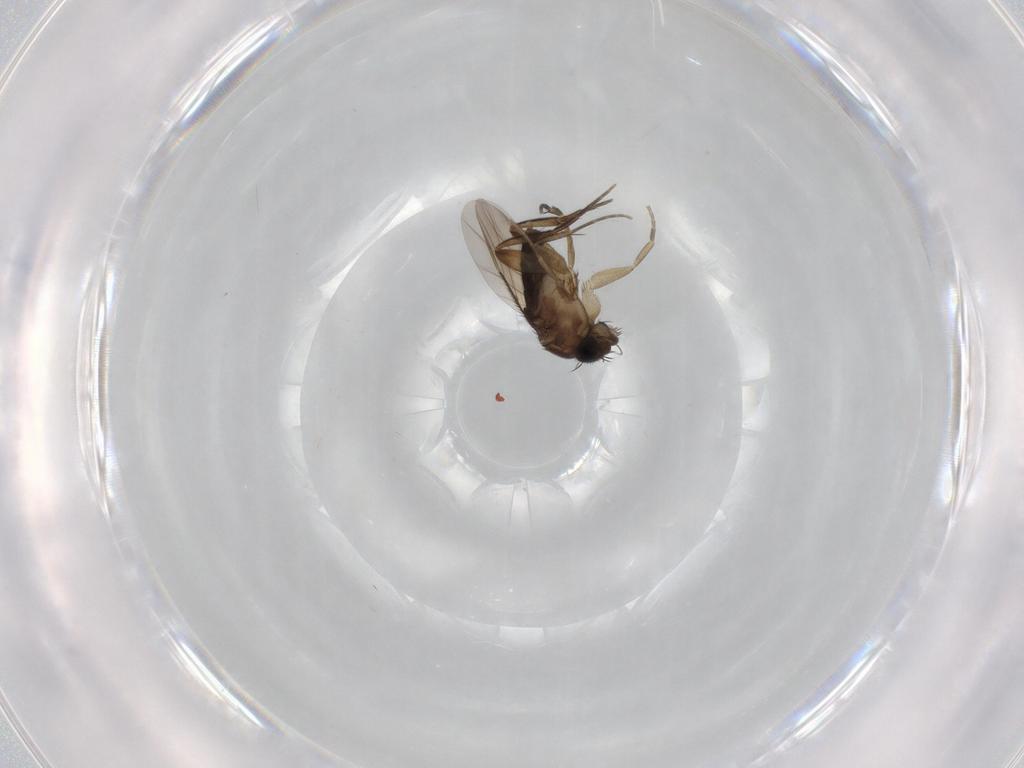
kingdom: Animalia
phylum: Arthropoda
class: Insecta
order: Diptera
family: Phoridae
